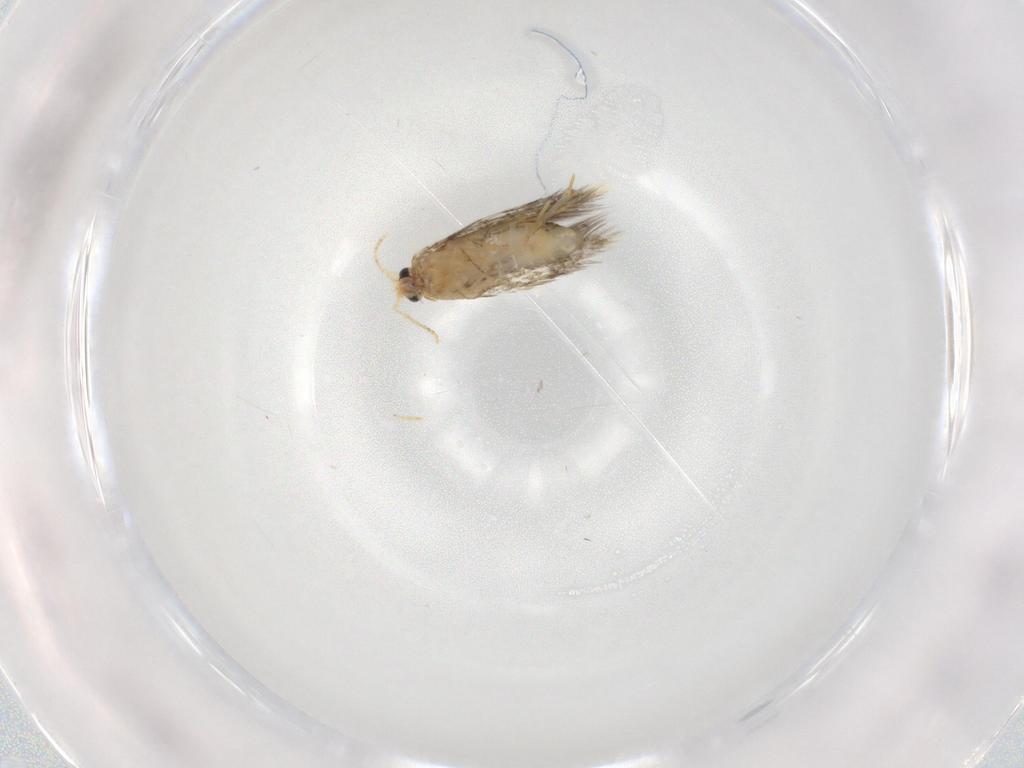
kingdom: Animalia
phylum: Arthropoda
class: Insecta
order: Lepidoptera
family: Copromorphidae
